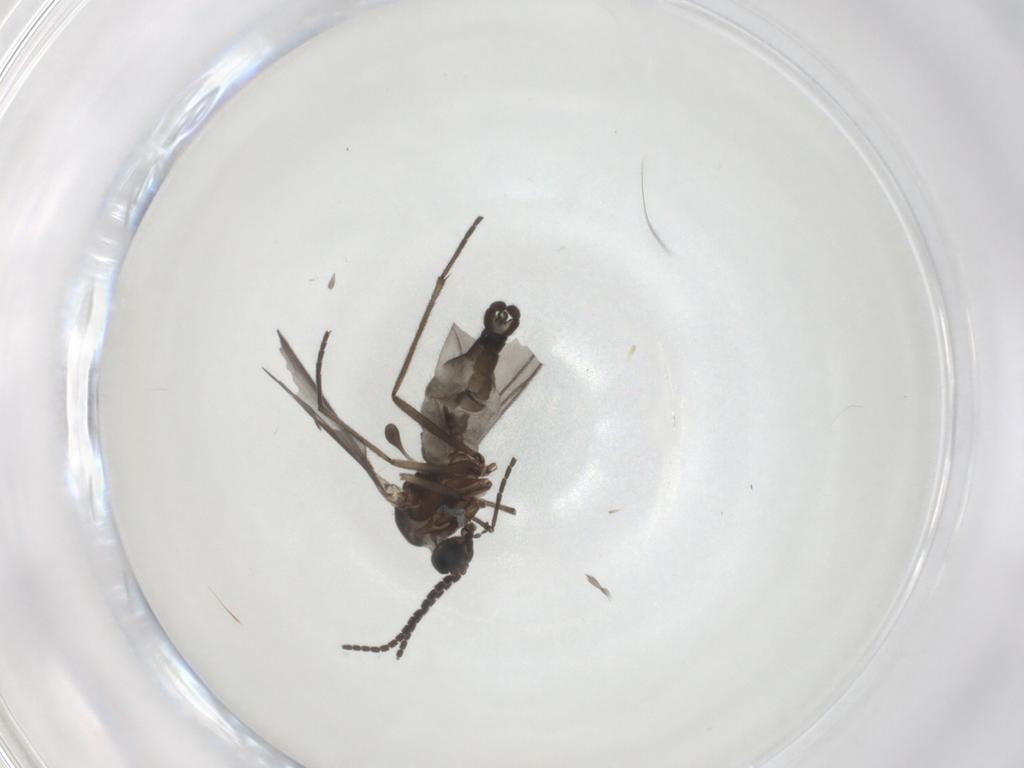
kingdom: Animalia
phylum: Arthropoda
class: Insecta
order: Diptera
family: Sciaridae
